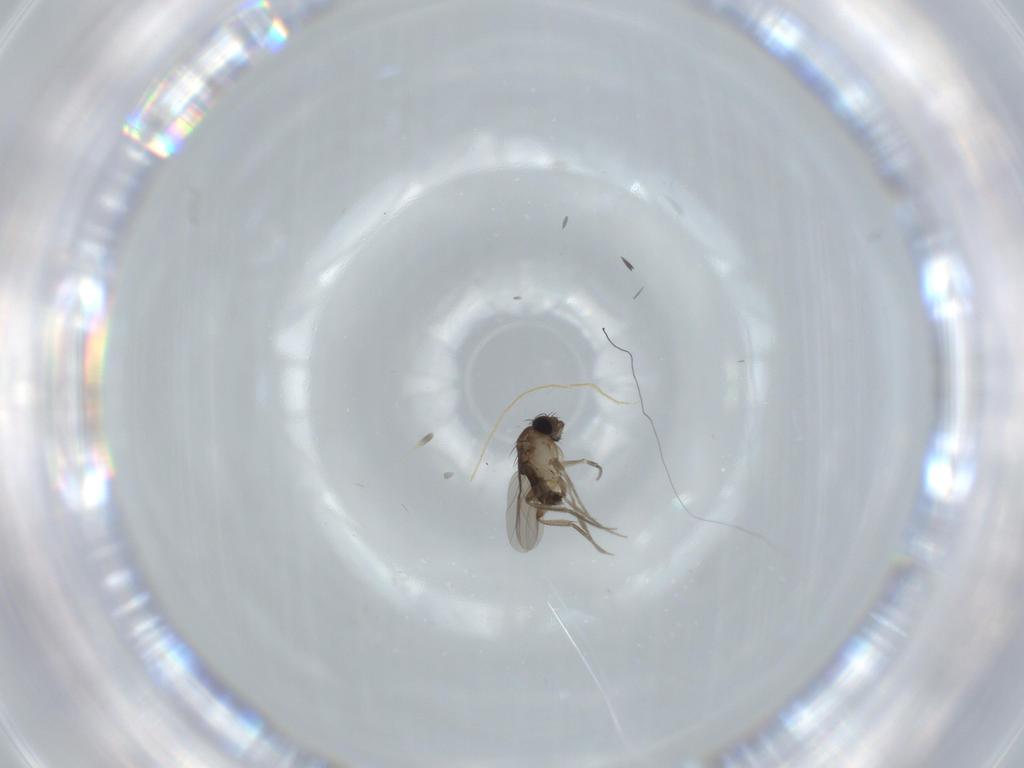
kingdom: Animalia
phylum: Arthropoda
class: Insecta
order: Diptera
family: Phoridae
